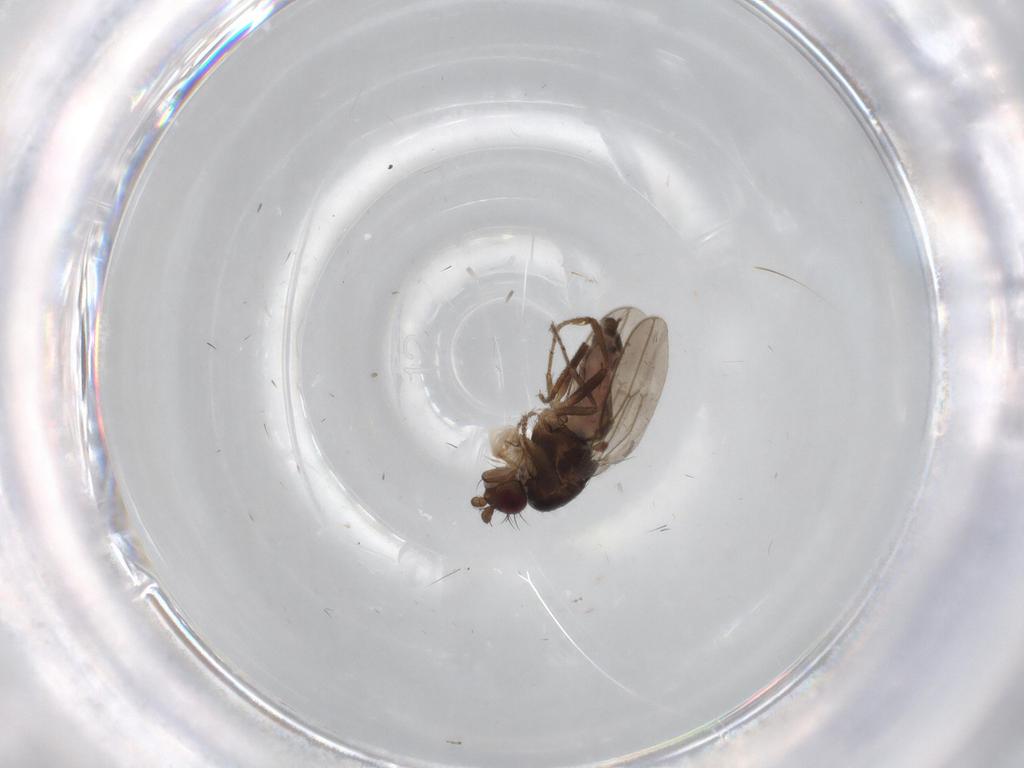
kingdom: Animalia
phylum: Arthropoda
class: Insecta
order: Diptera
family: Sphaeroceridae
